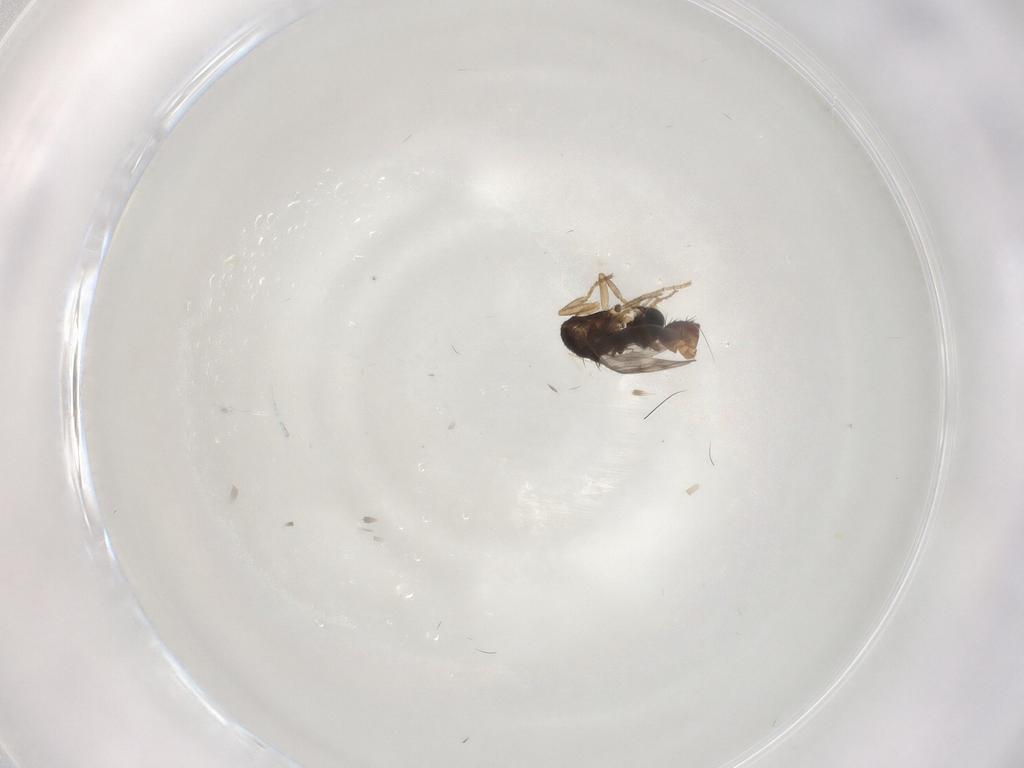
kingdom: Animalia
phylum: Arthropoda
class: Insecta
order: Diptera
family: Sphaeroceridae
